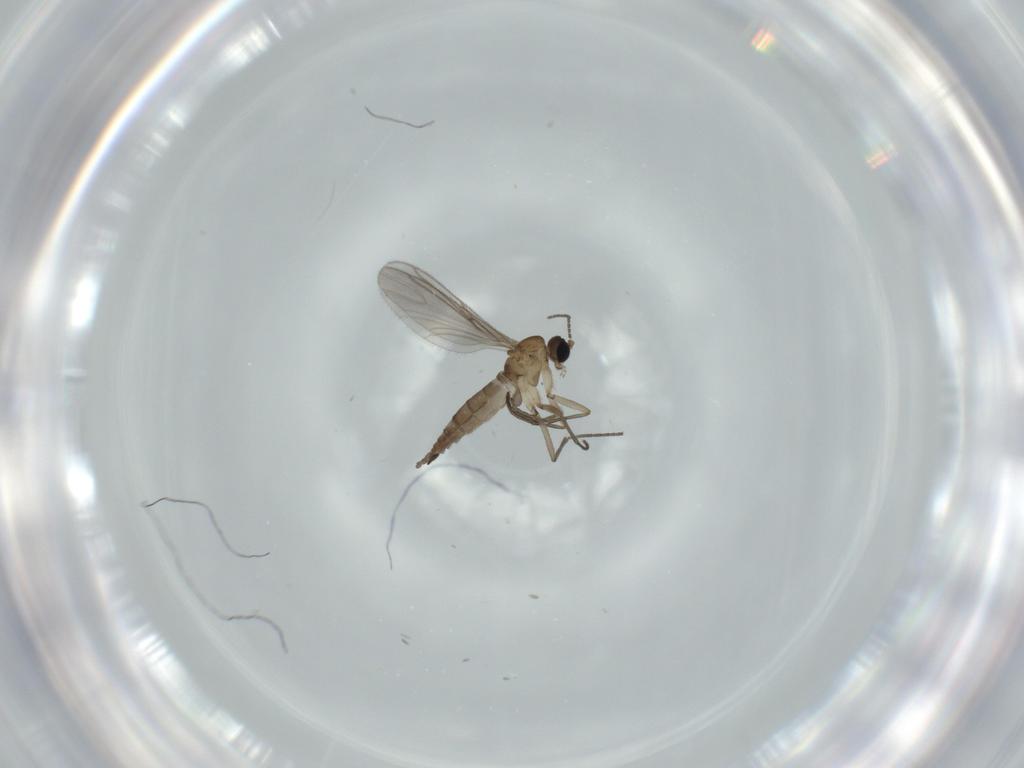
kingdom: Animalia
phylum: Arthropoda
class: Insecta
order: Diptera
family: Sciaridae
